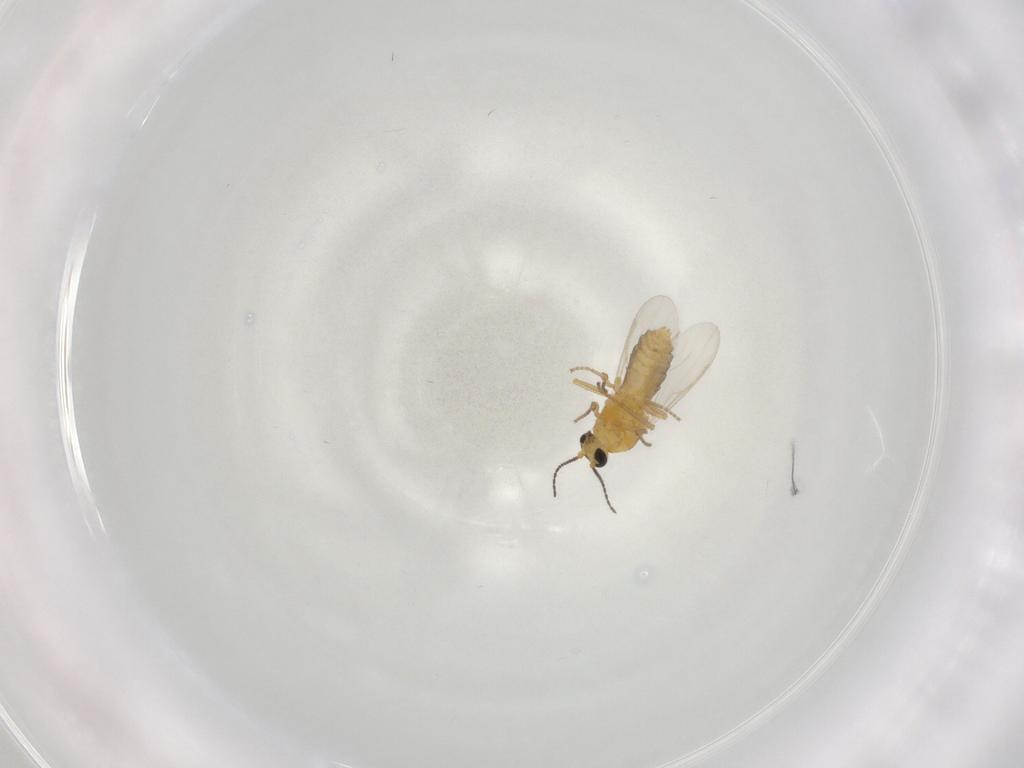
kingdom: Animalia
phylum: Arthropoda
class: Insecta
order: Diptera
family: Ceratopogonidae
